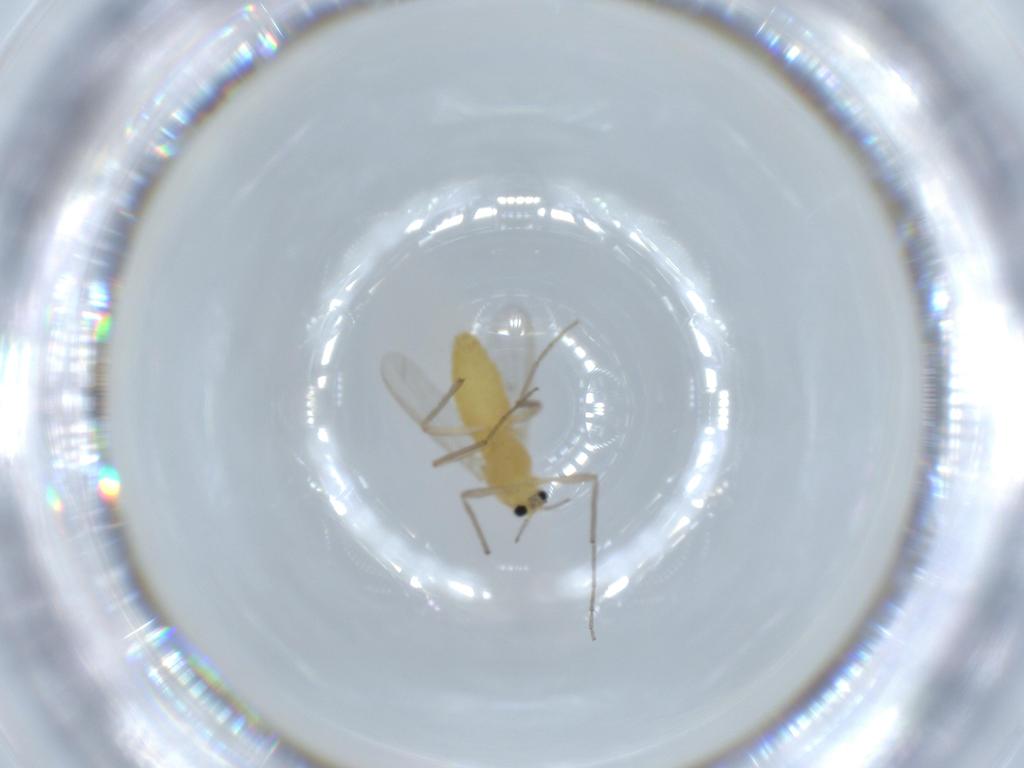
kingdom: Animalia
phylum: Arthropoda
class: Insecta
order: Diptera
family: Chironomidae
